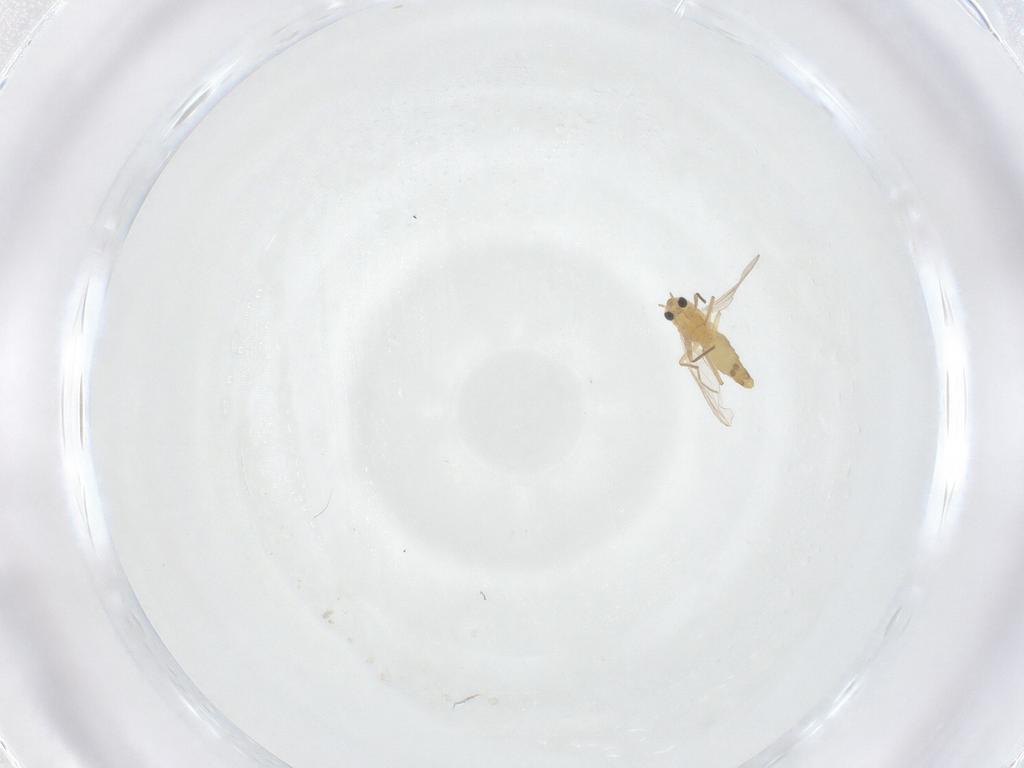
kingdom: Animalia
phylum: Arthropoda
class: Insecta
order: Diptera
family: Chironomidae
